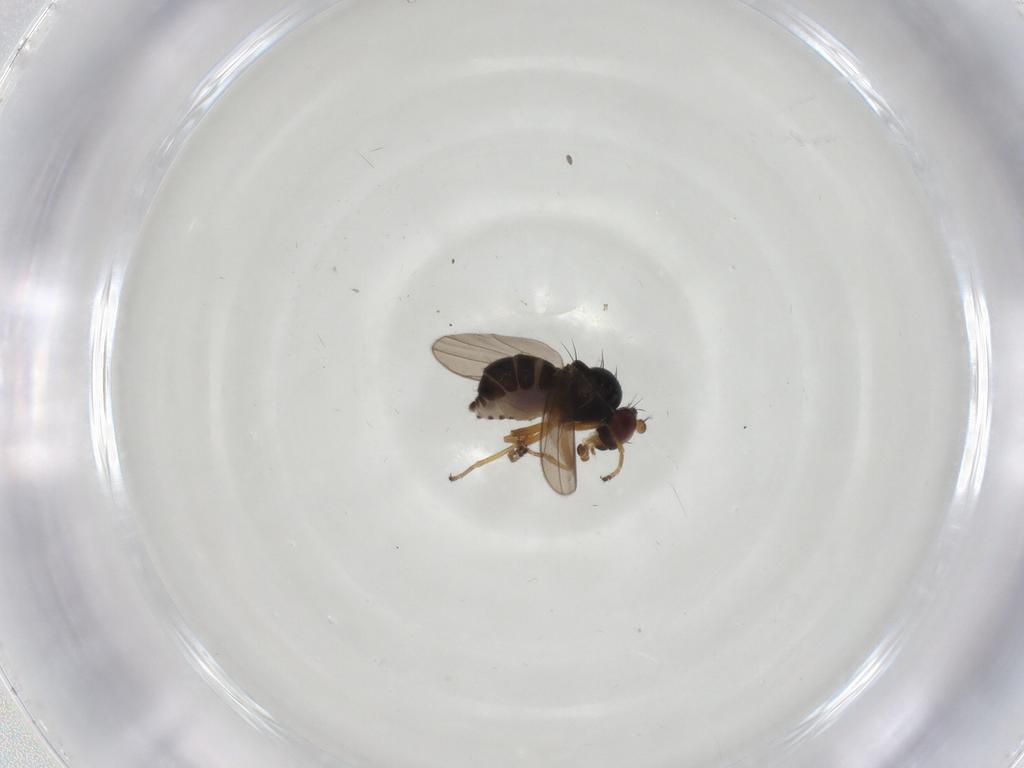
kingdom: Animalia
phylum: Arthropoda
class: Insecta
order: Diptera
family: Ephydridae
